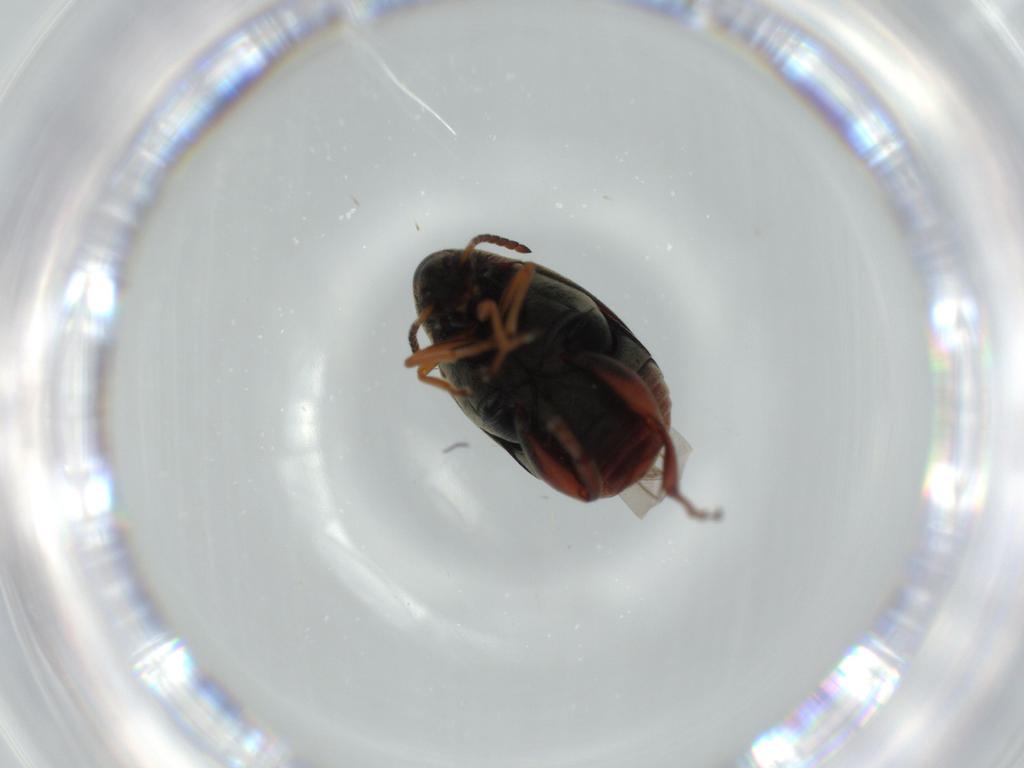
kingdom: Animalia
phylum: Arthropoda
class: Insecta
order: Coleoptera
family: Chrysomelidae
